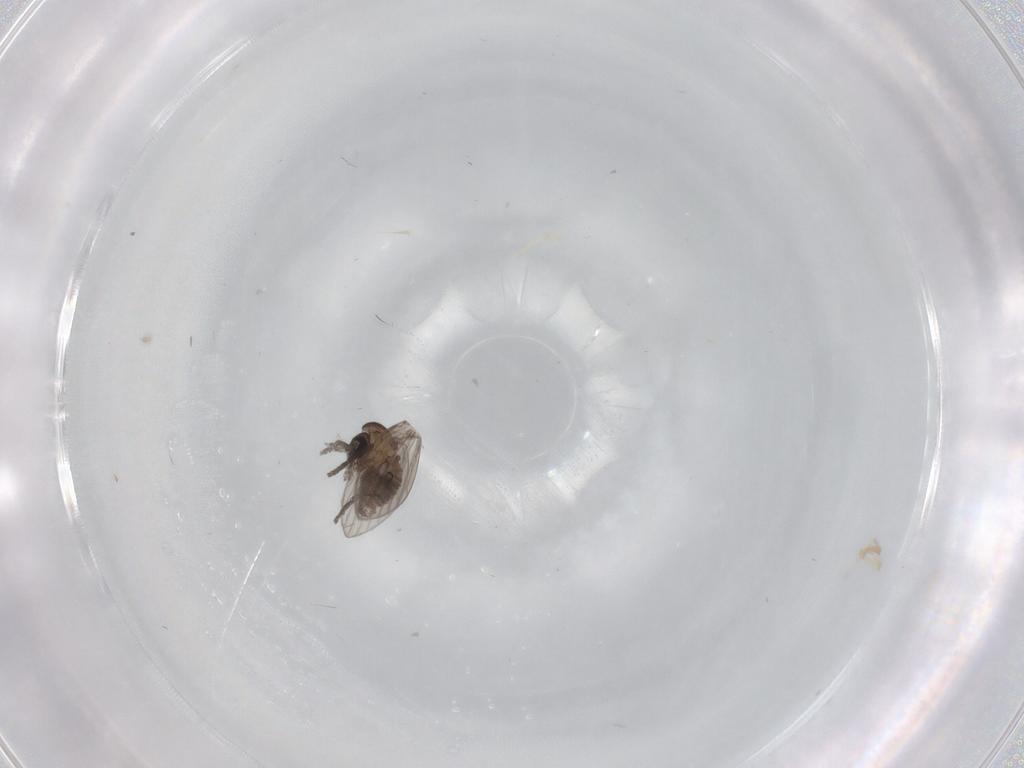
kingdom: Animalia
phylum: Arthropoda
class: Insecta
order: Diptera
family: Psychodidae
